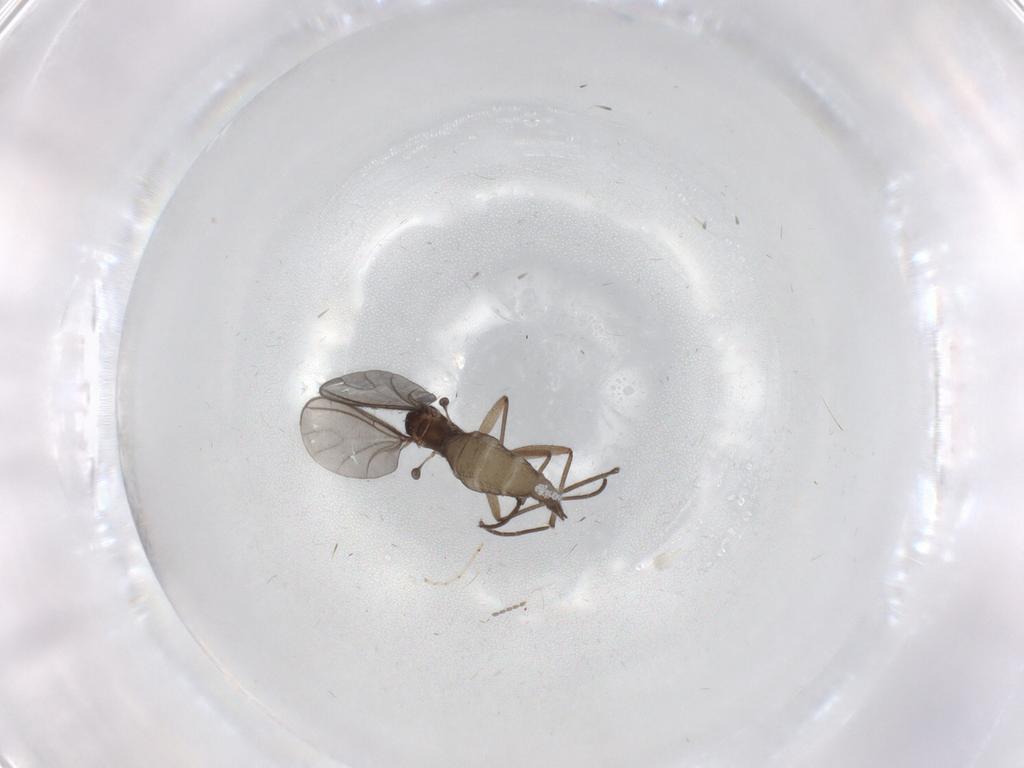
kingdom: Animalia
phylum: Arthropoda
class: Insecta
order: Diptera
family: Sciaridae
